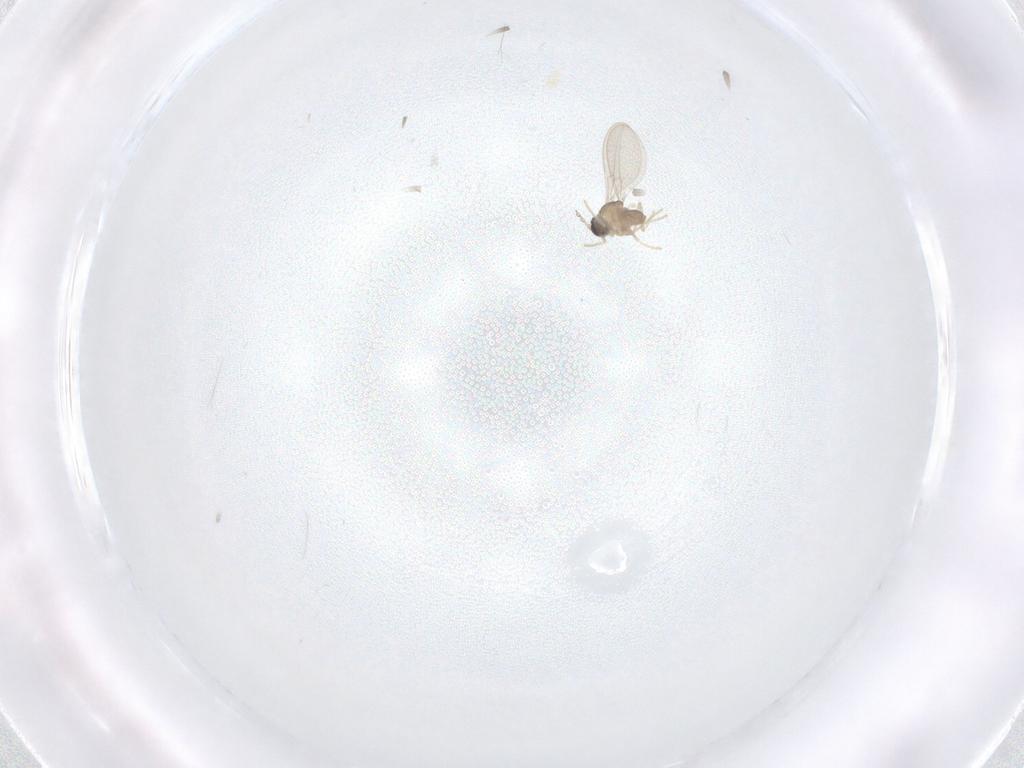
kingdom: Animalia
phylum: Arthropoda
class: Insecta
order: Diptera
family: Cecidomyiidae
